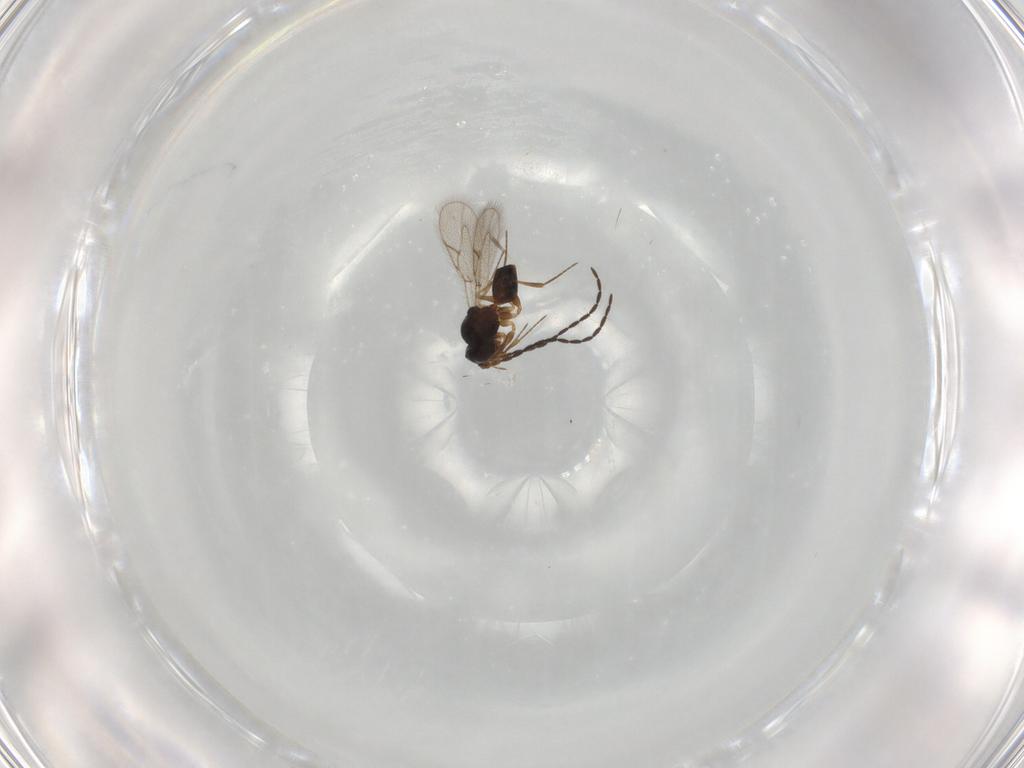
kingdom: Animalia
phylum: Arthropoda
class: Insecta
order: Hymenoptera
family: Figitidae
